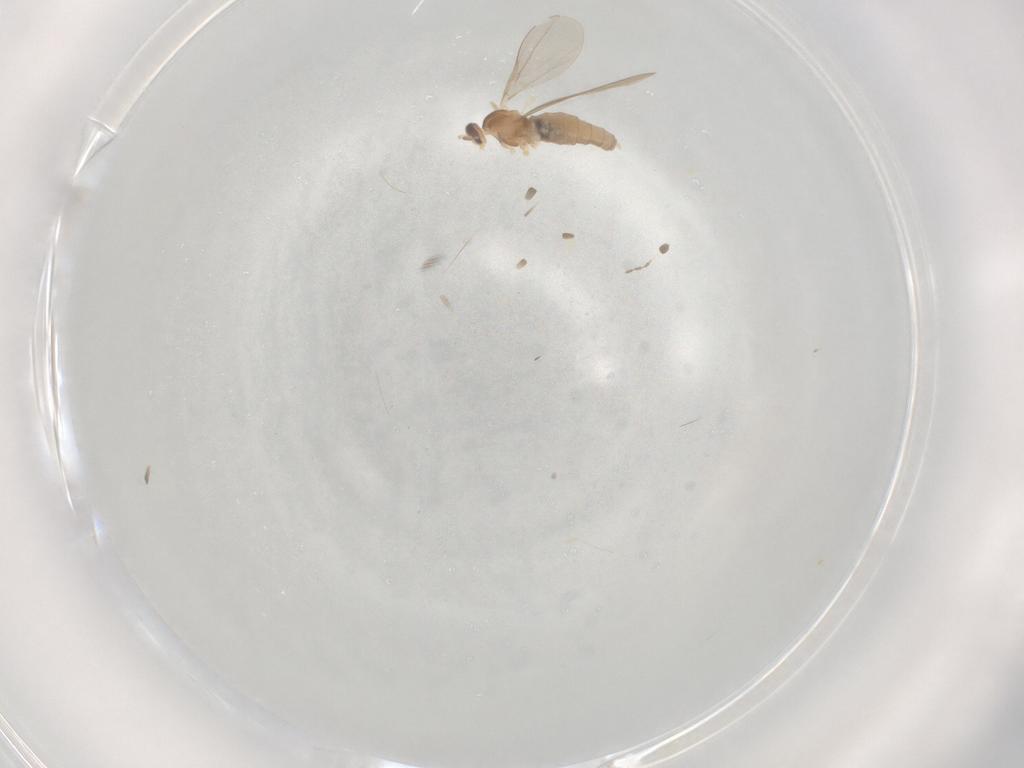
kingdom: Animalia
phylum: Arthropoda
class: Insecta
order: Diptera
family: Cecidomyiidae
